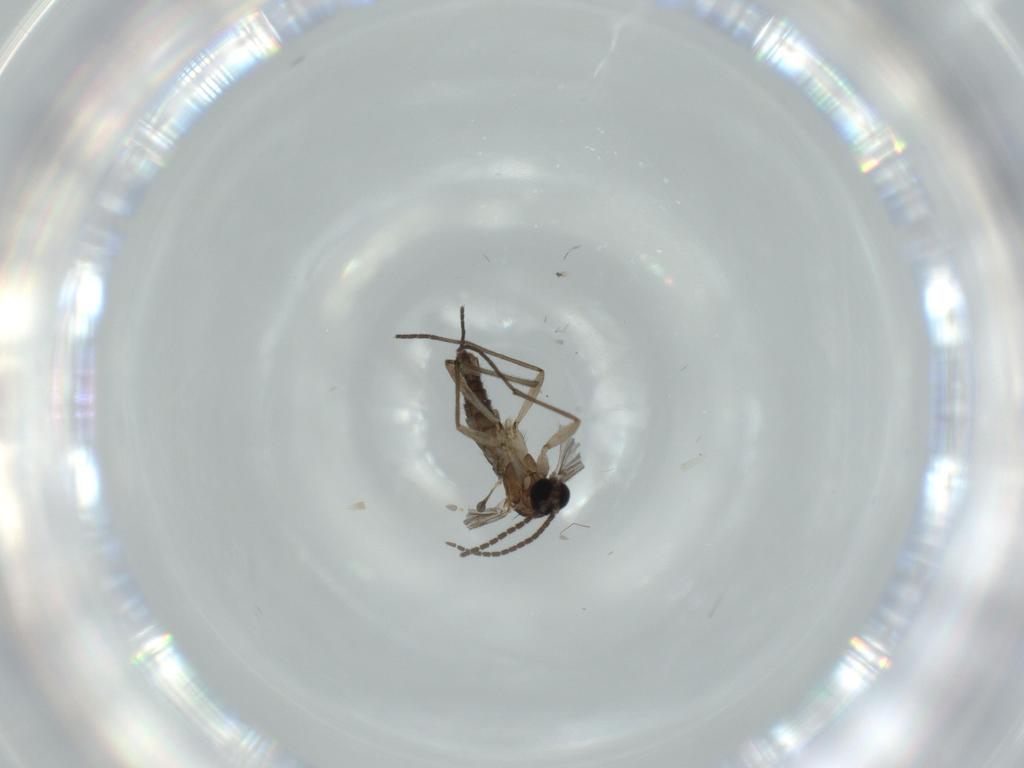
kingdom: Animalia
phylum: Arthropoda
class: Insecta
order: Diptera
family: Sciaridae
